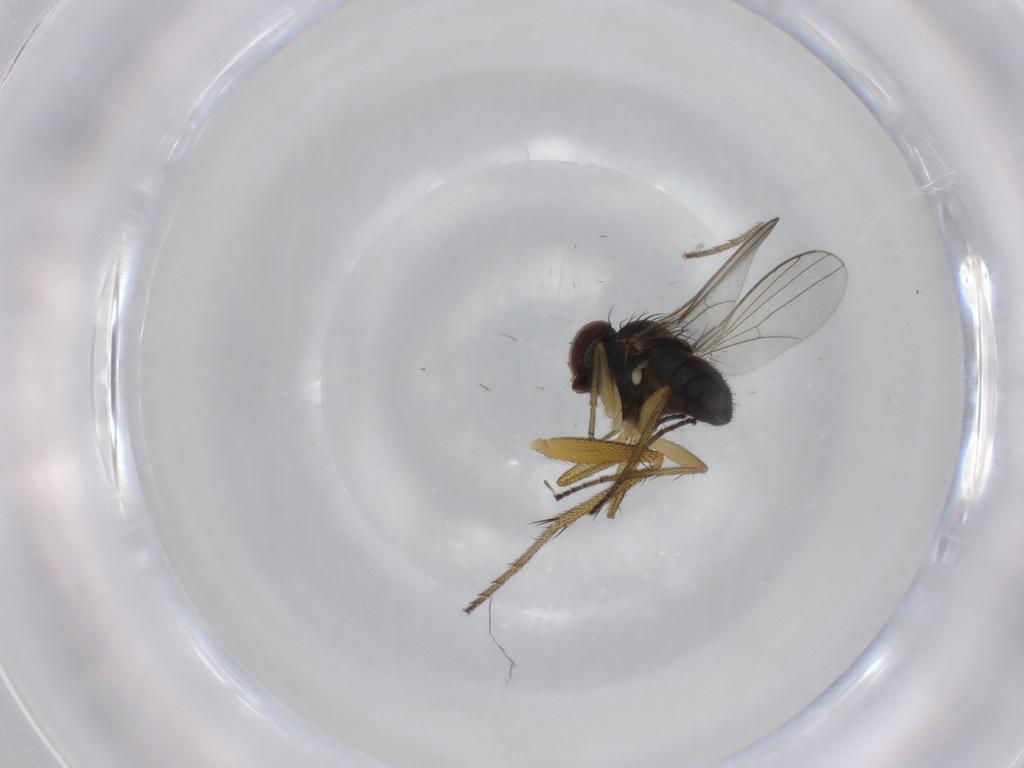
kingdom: Animalia
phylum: Arthropoda
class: Insecta
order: Diptera
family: Dolichopodidae
